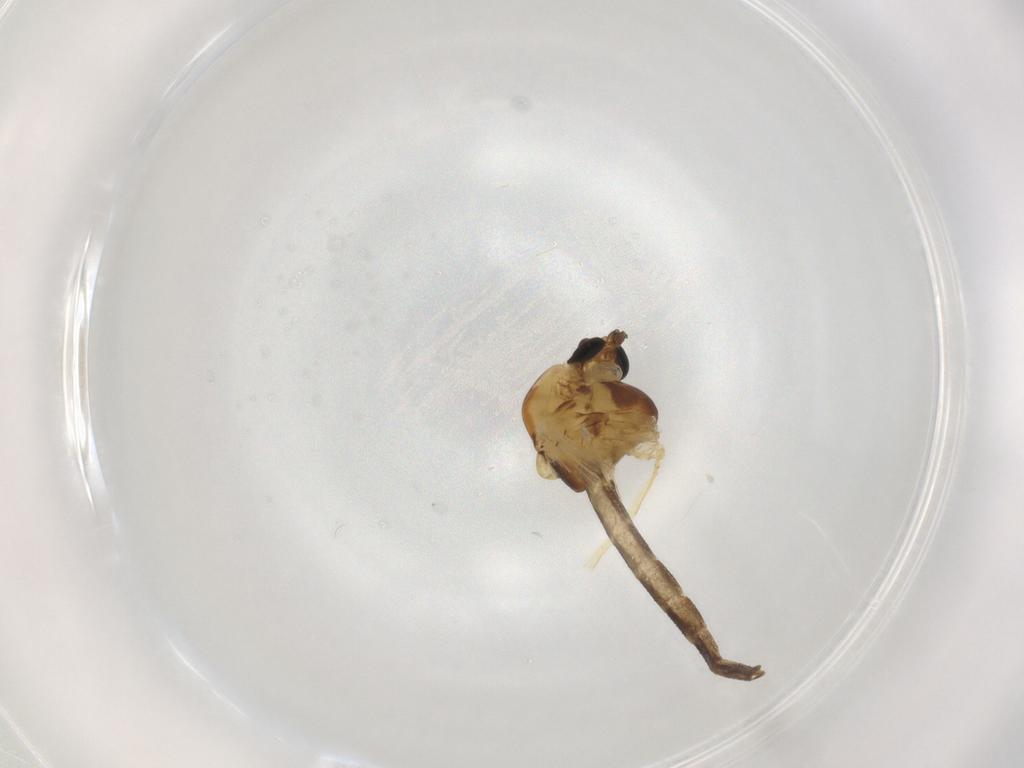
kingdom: Animalia
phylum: Arthropoda
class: Insecta
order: Diptera
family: Chironomidae
